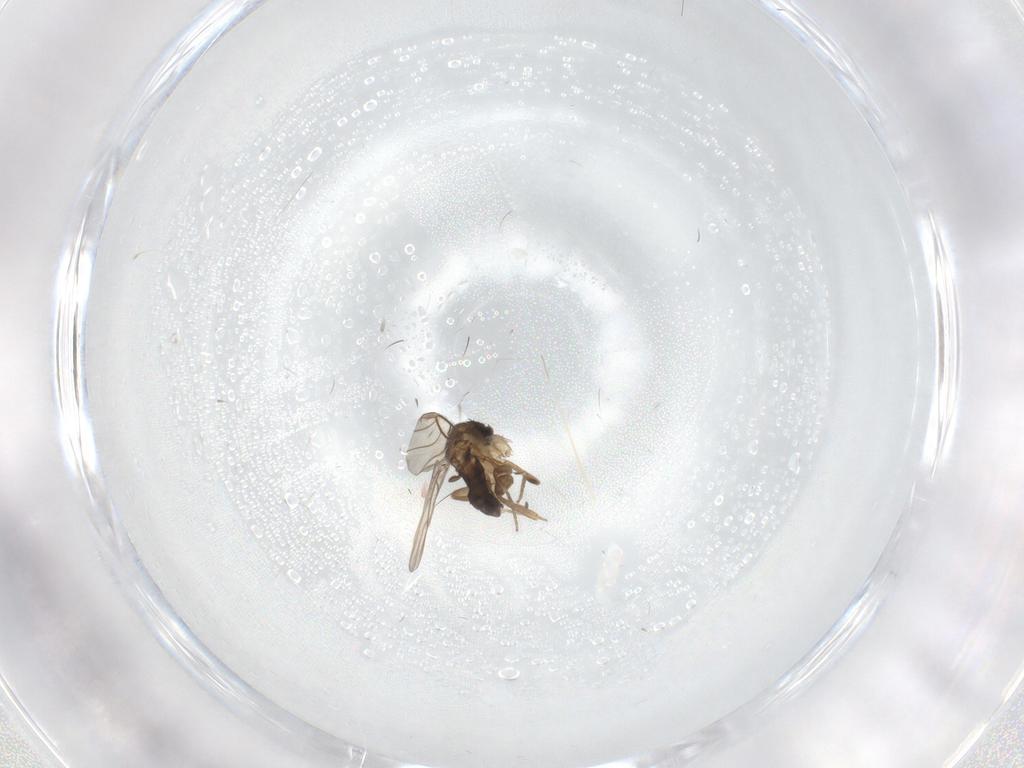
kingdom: Animalia
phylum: Arthropoda
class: Insecta
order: Diptera
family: Phoridae
